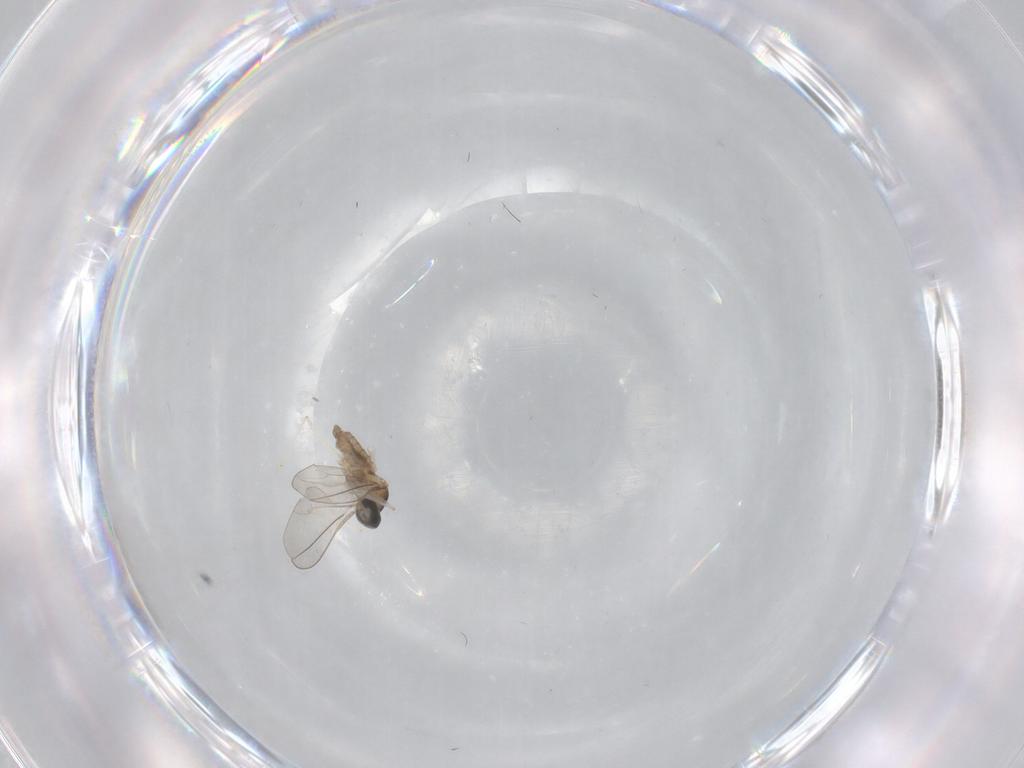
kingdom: Animalia
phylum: Arthropoda
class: Insecta
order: Diptera
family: Cecidomyiidae
